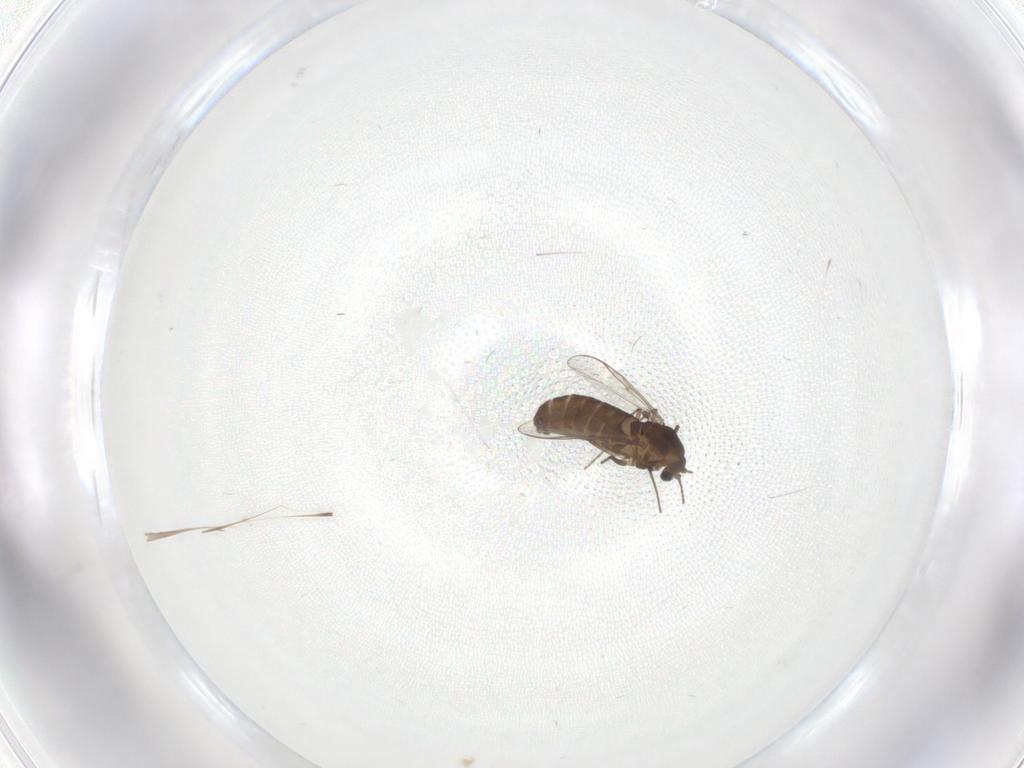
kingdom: Animalia
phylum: Arthropoda
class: Insecta
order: Diptera
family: Chironomidae
